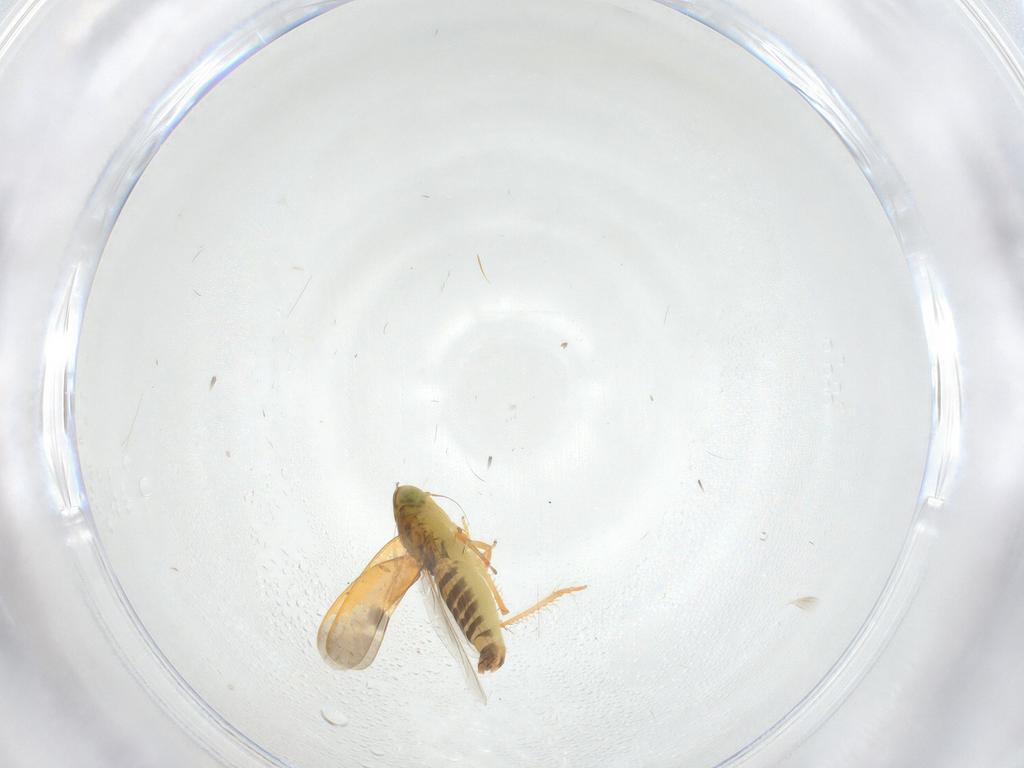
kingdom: Animalia
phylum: Arthropoda
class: Insecta
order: Hemiptera
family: Cicadellidae
